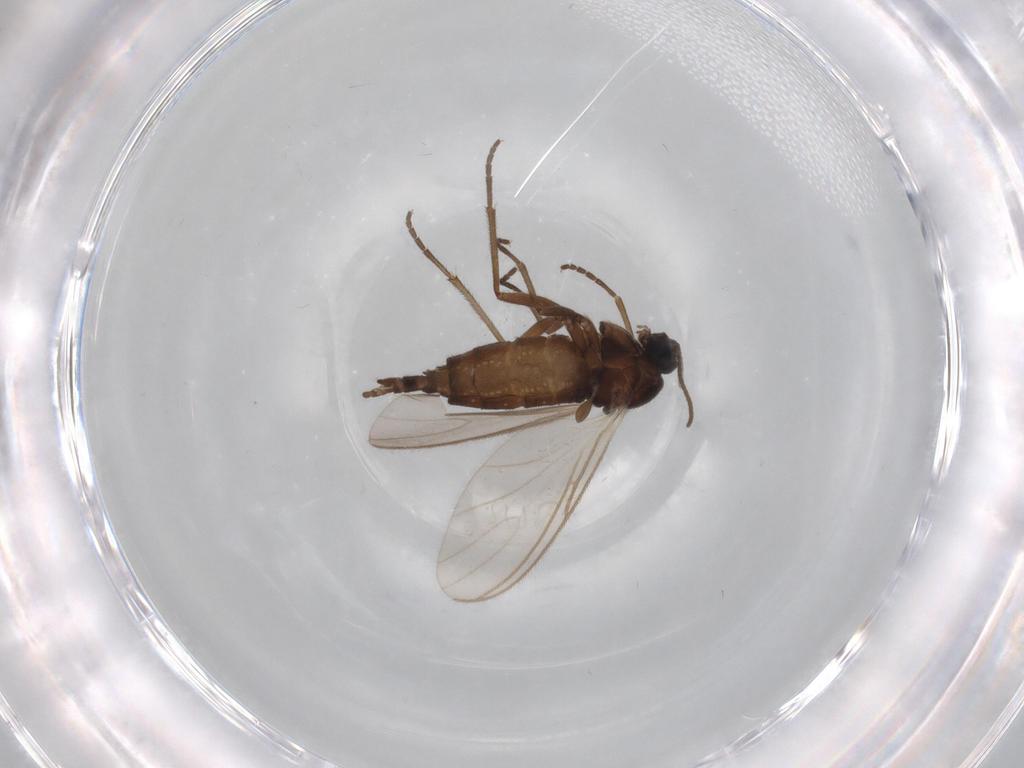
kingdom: Animalia
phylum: Arthropoda
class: Insecta
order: Diptera
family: Sciaridae
